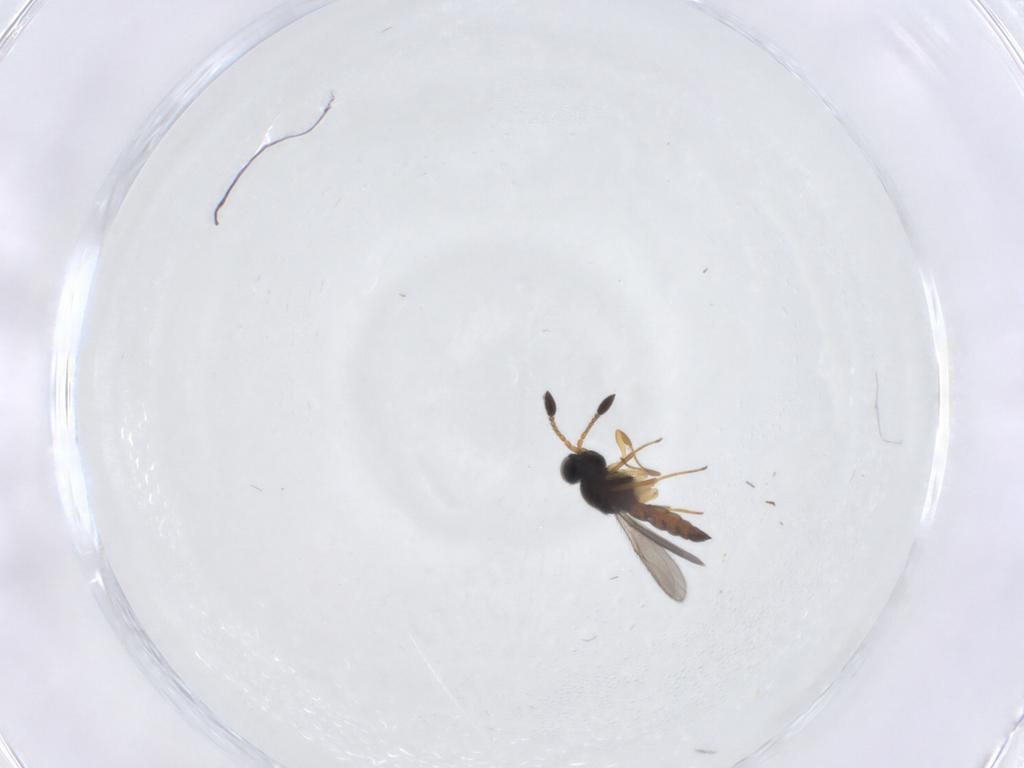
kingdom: Animalia
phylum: Arthropoda
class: Insecta
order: Hymenoptera
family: Scelionidae
